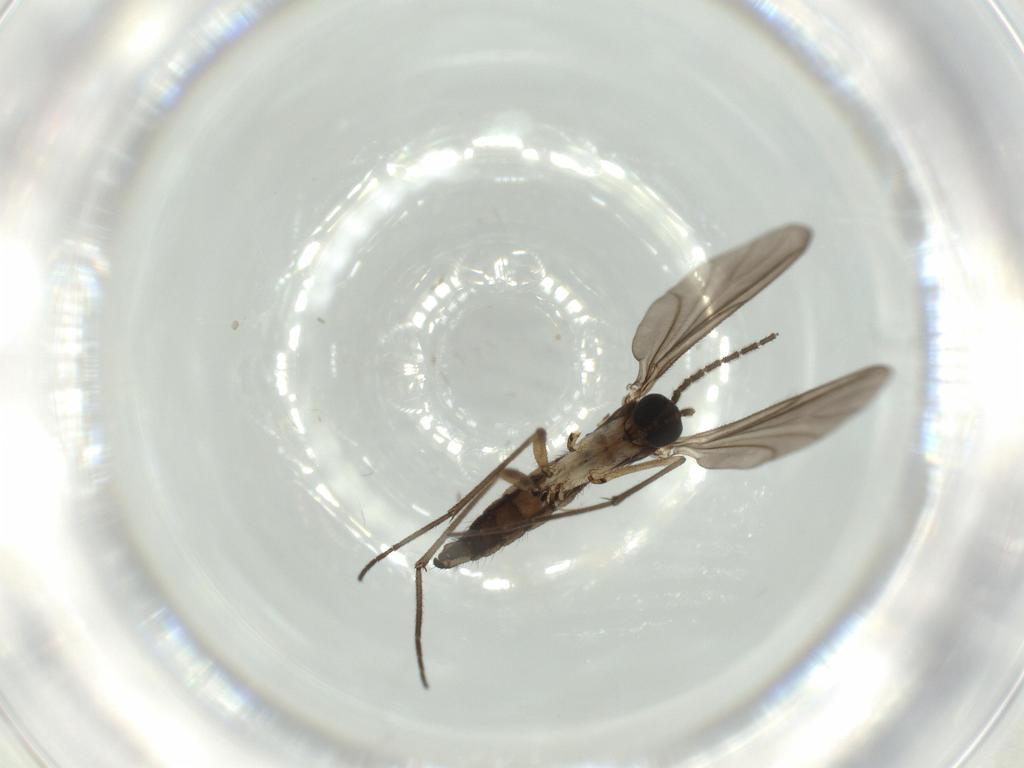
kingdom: Animalia
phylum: Arthropoda
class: Insecta
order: Diptera
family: Sciaridae
